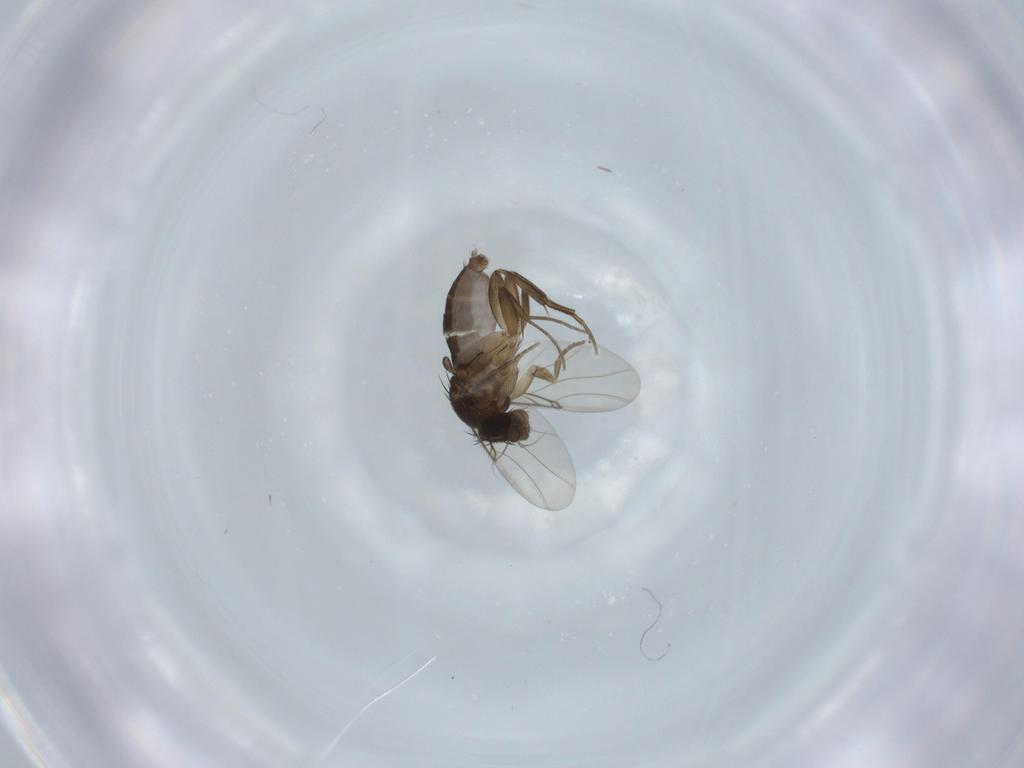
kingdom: Animalia
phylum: Arthropoda
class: Insecta
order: Diptera
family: Phoridae
